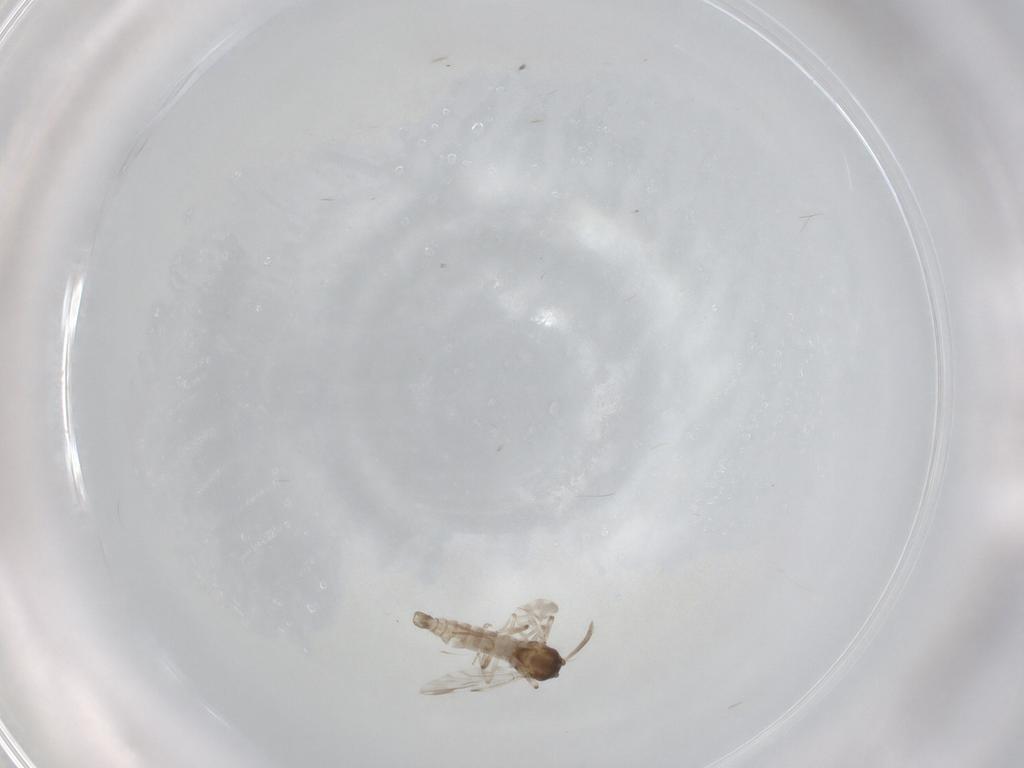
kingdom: Animalia
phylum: Arthropoda
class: Insecta
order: Diptera
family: Ceratopogonidae
